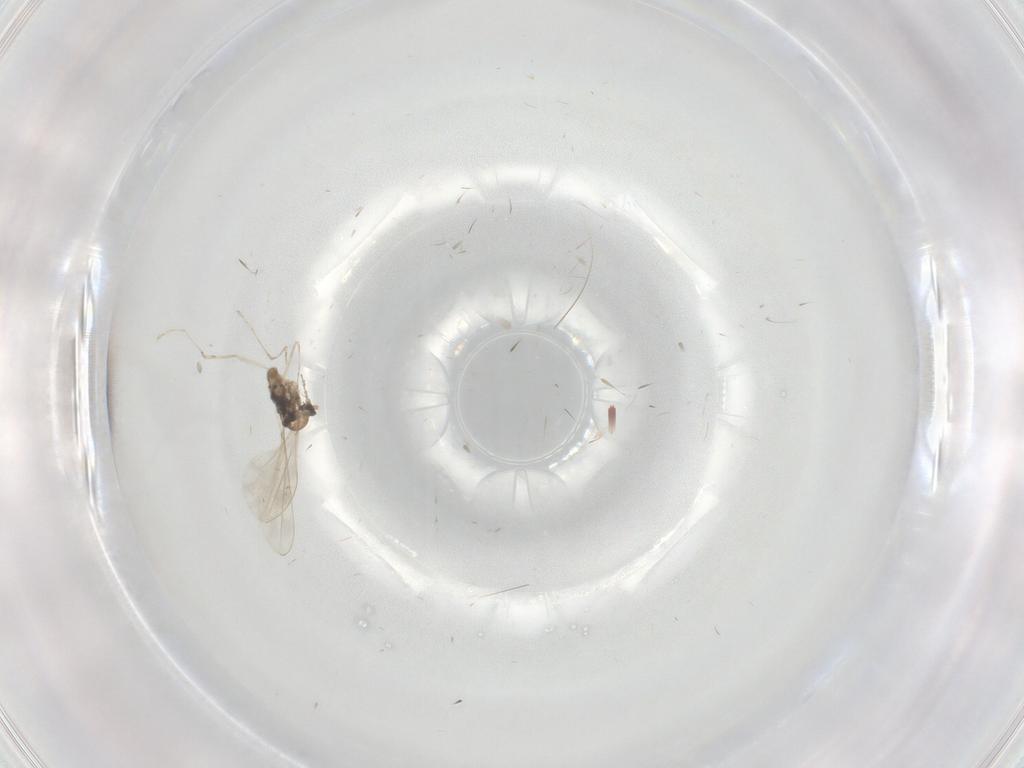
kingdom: Animalia
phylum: Arthropoda
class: Insecta
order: Diptera
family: Cecidomyiidae
